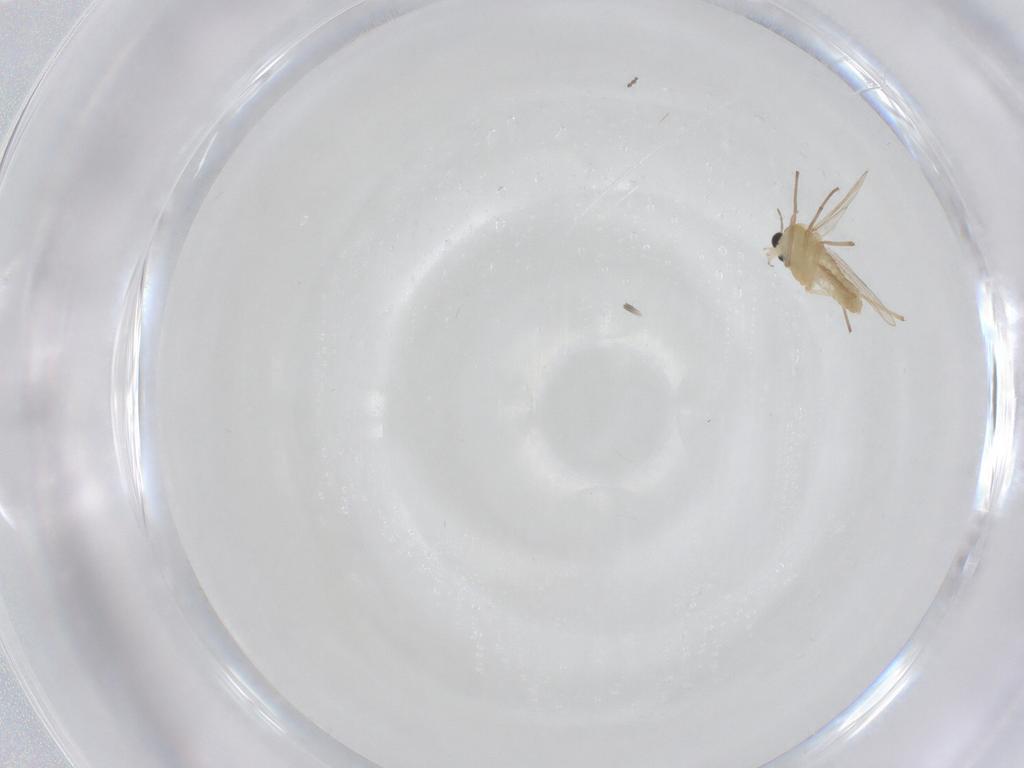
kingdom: Animalia
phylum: Arthropoda
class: Insecta
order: Diptera
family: Chironomidae
